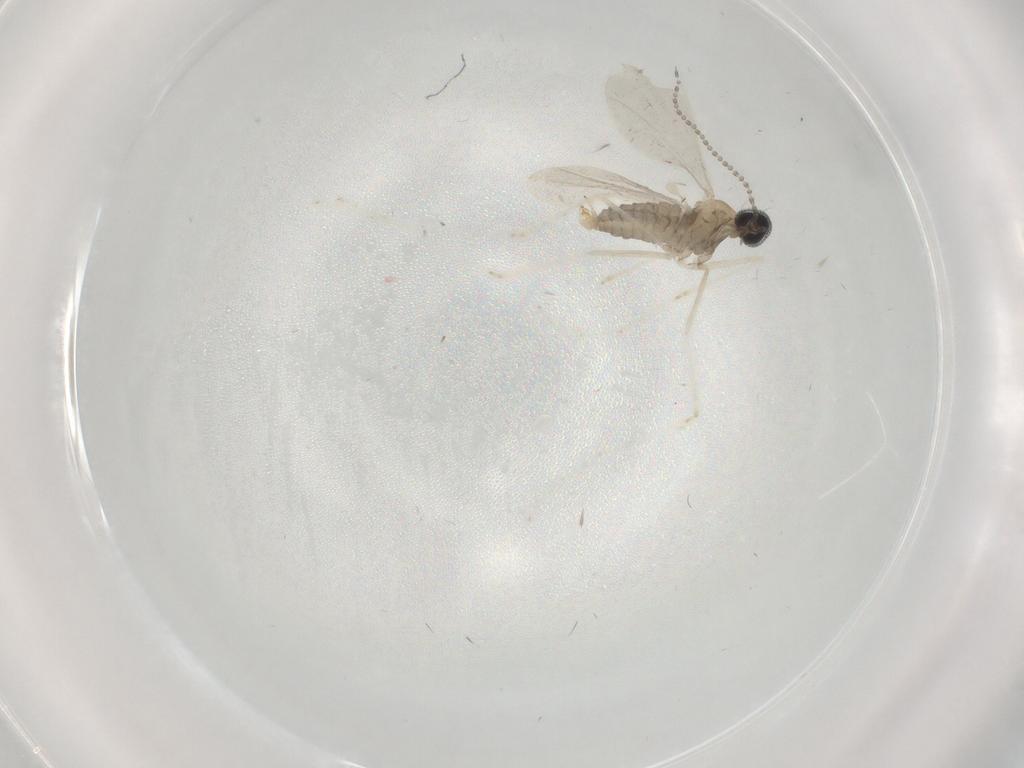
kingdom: Animalia
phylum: Arthropoda
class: Insecta
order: Diptera
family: Cecidomyiidae
